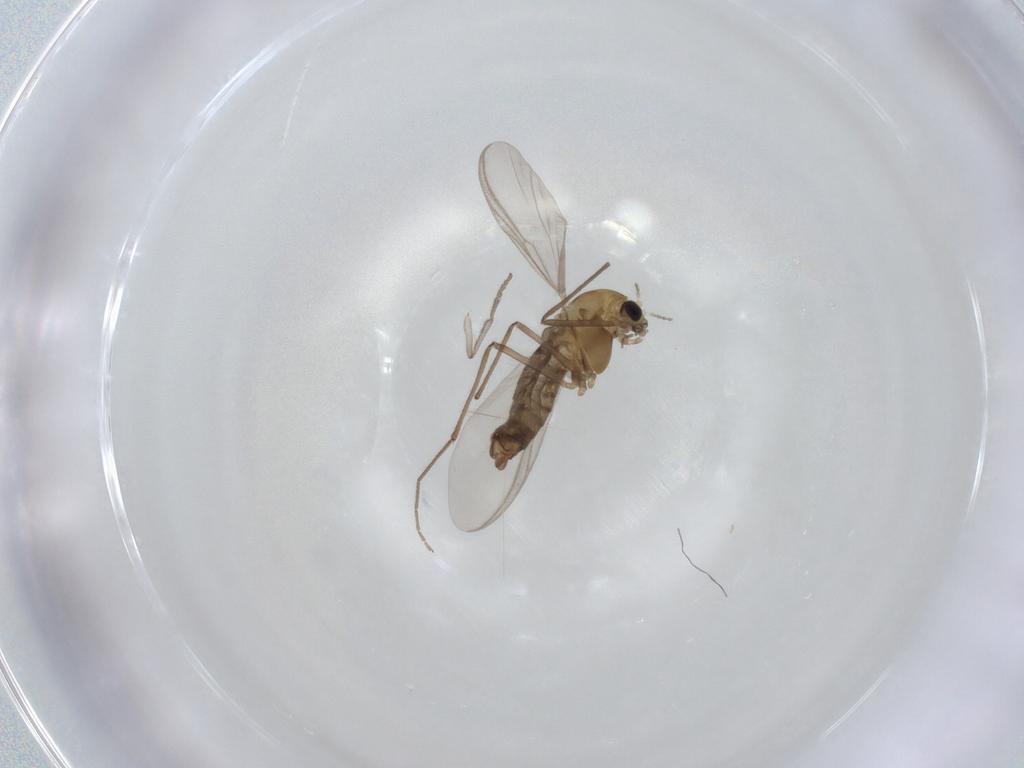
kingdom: Animalia
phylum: Arthropoda
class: Insecta
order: Diptera
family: Psychodidae
